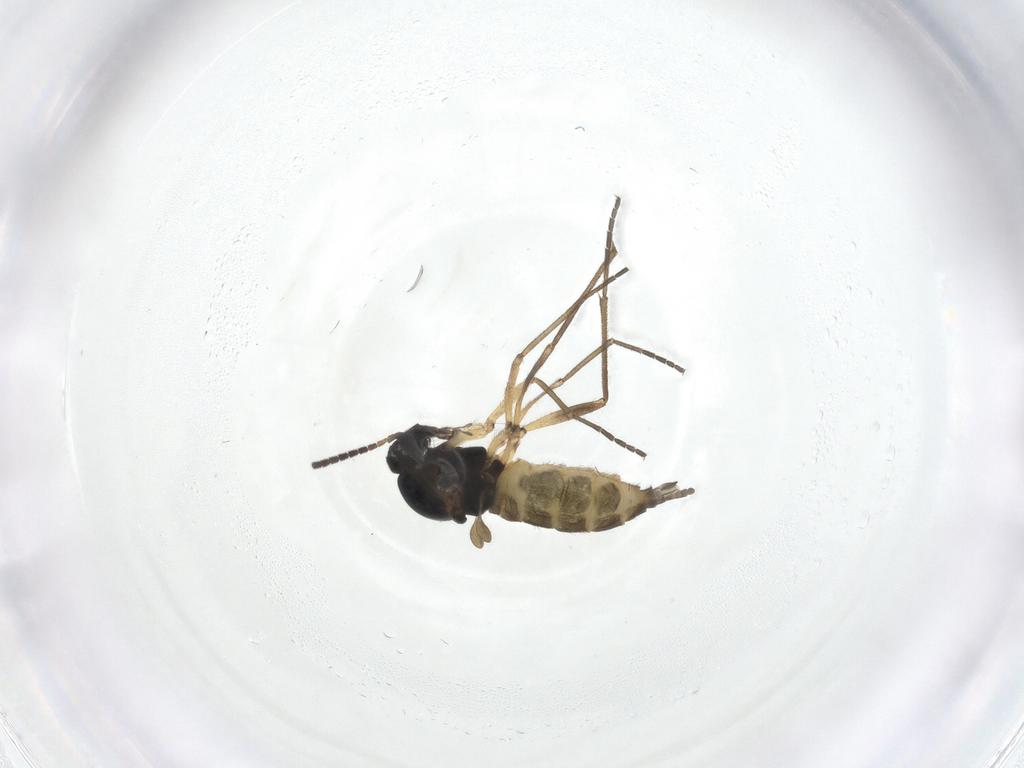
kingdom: Animalia
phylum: Arthropoda
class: Insecta
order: Diptera
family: Sciaridae
